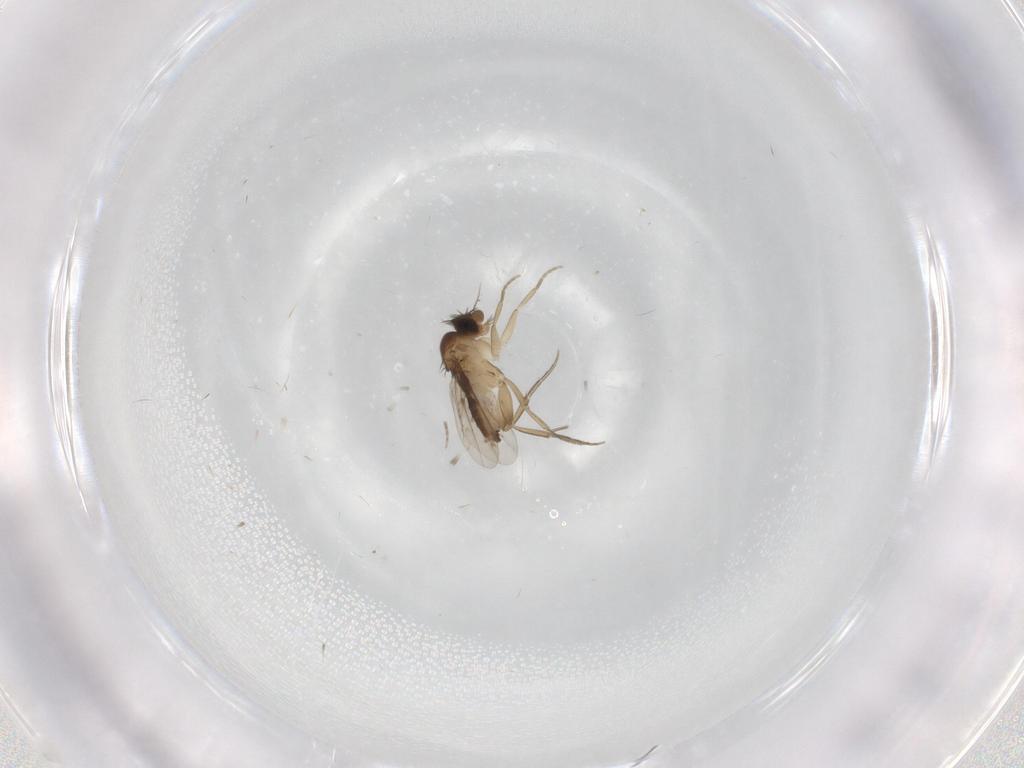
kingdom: Animalia
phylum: Arthropoda
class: Insecta
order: Diptera
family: Phoridae
